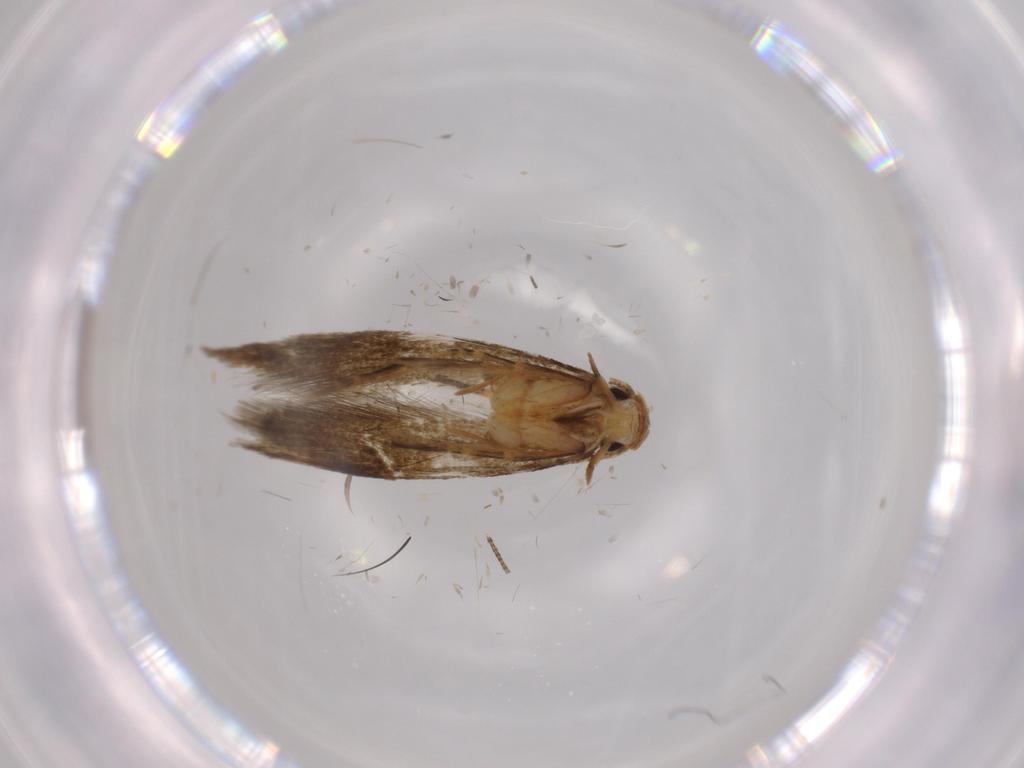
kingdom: Animalia
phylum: Arthropoda
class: Insecta
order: Lepidoptera
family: Tineidae
